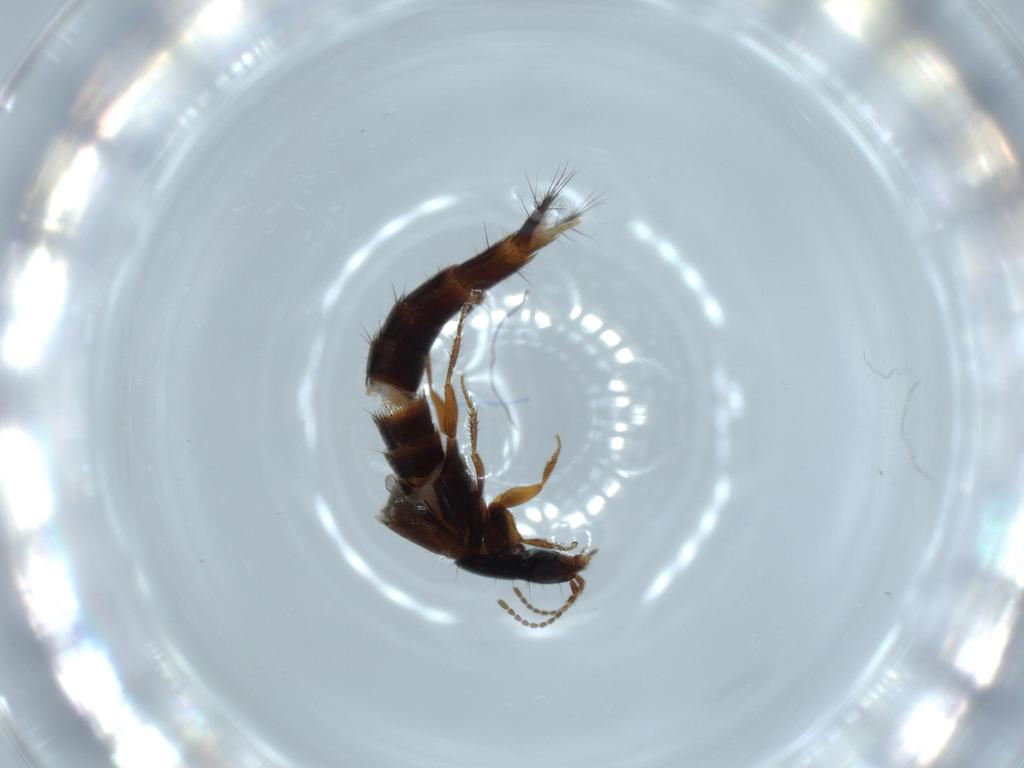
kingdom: Animalia
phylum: Arthropoda
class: Insecta
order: Coleoptera
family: Staphylinidae
